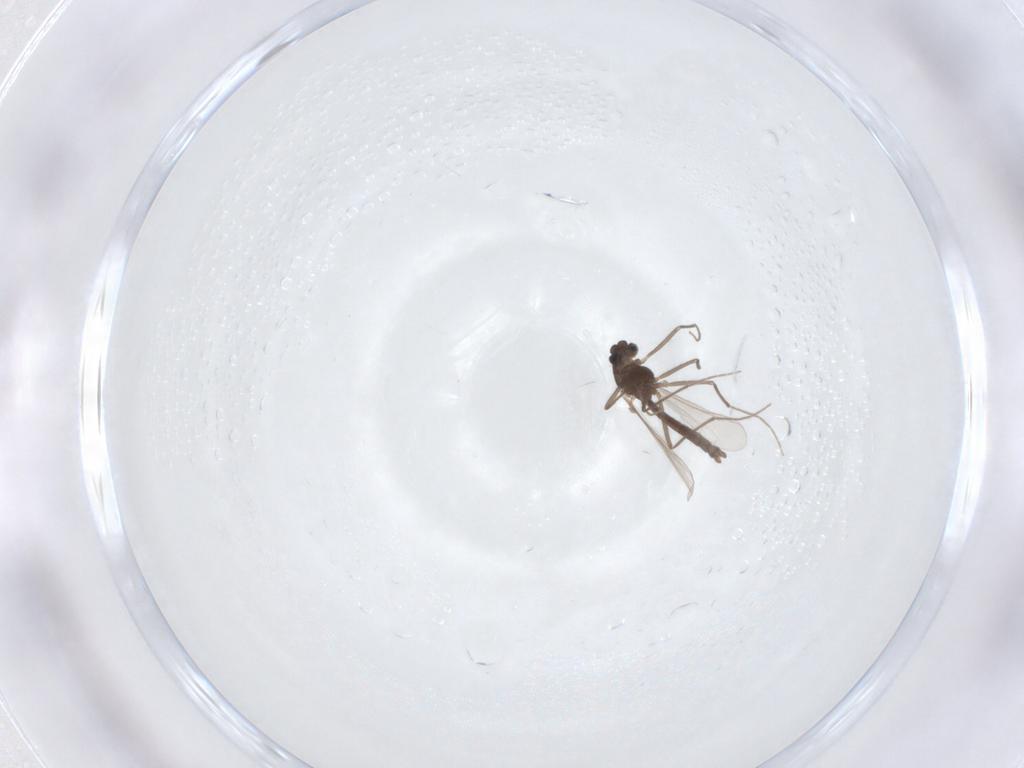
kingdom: Animalia
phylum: Arthropoda
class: Insecta
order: Diptera
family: Chironomidae
